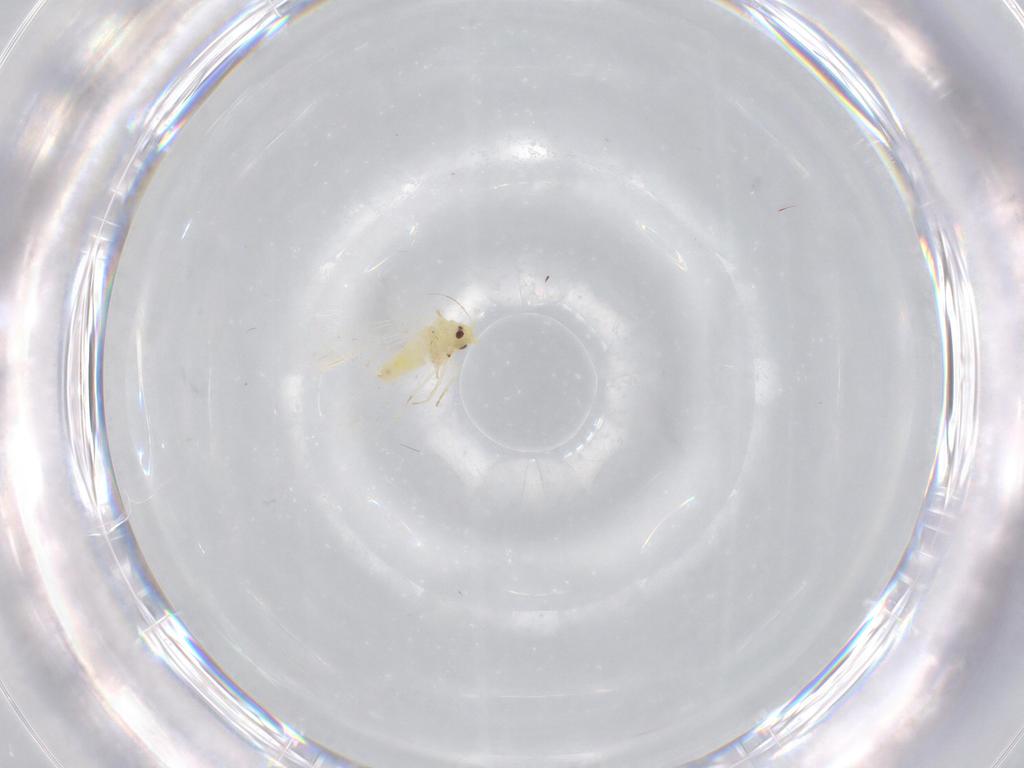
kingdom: Animalia
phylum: Arthropoda
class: Insecta
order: Hemiptera
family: Aleyrodidae
